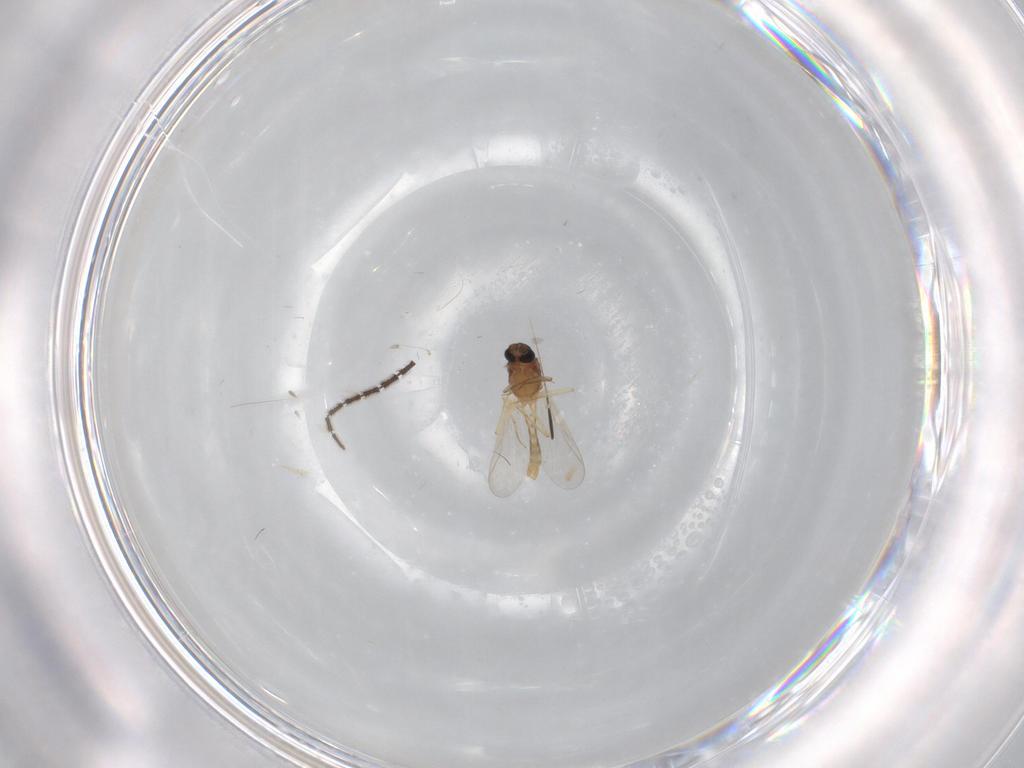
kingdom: Animalia
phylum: Arthropoda
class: Insecta
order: Diptera
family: Chironomidae
